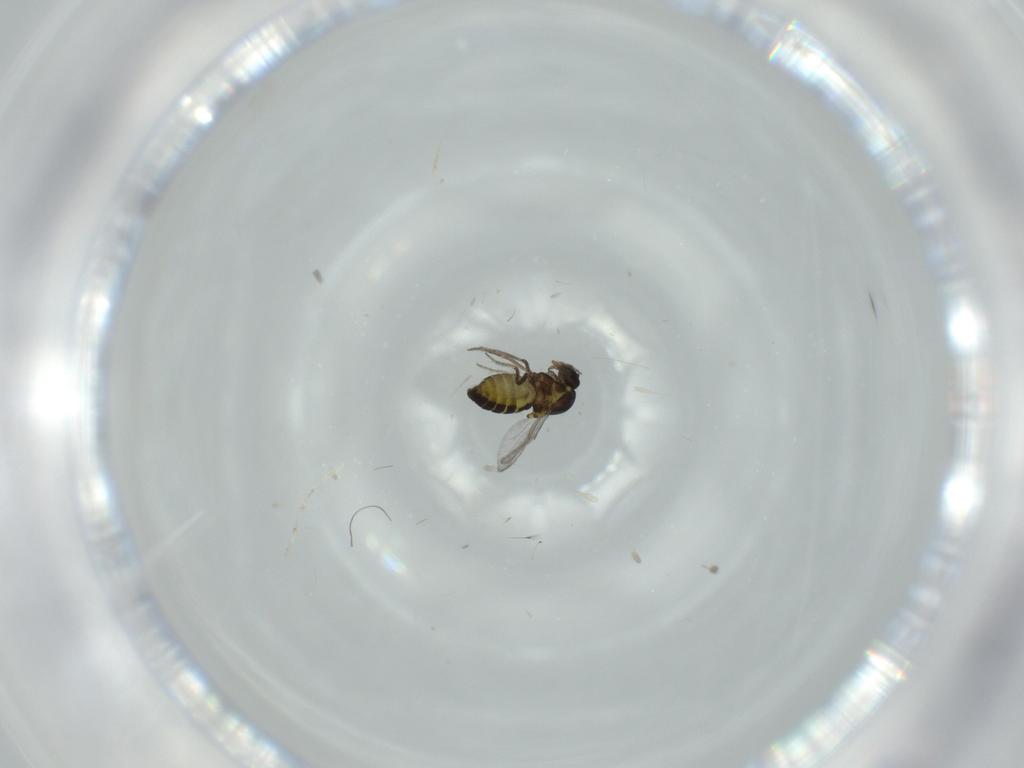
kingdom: Animalia
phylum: Arthropoda
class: Insecta
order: Diptera
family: Ceratopogonidae
